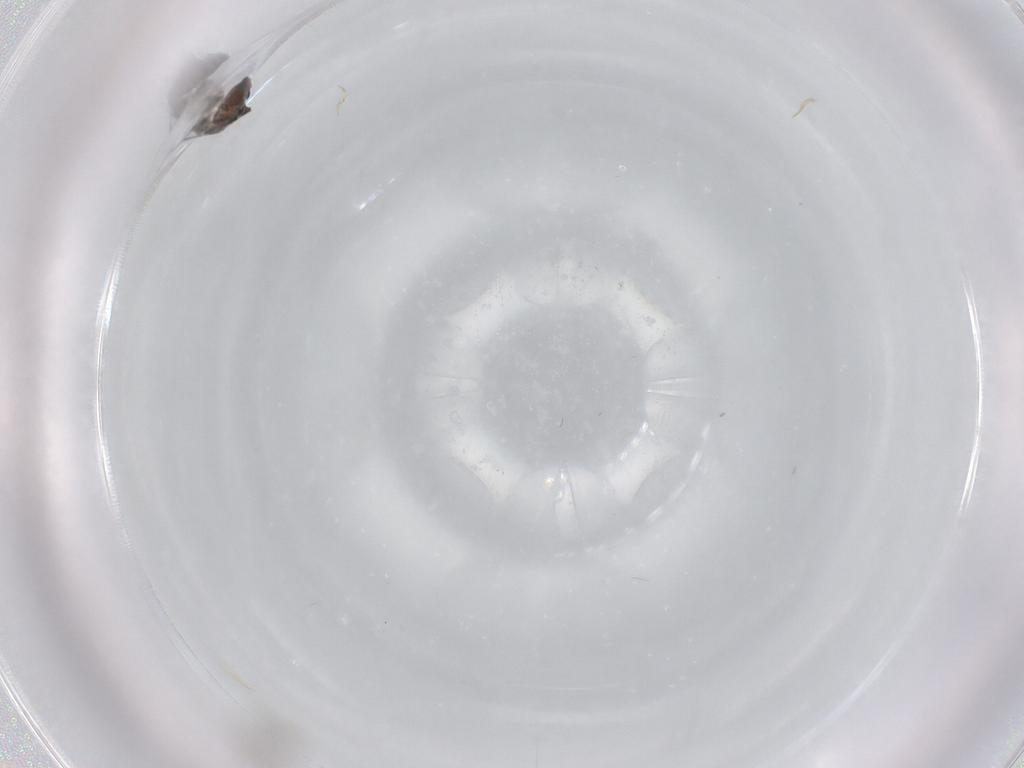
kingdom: Animalia
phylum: Arthropoda
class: Insecta
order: Diptera
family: Chironomidae
